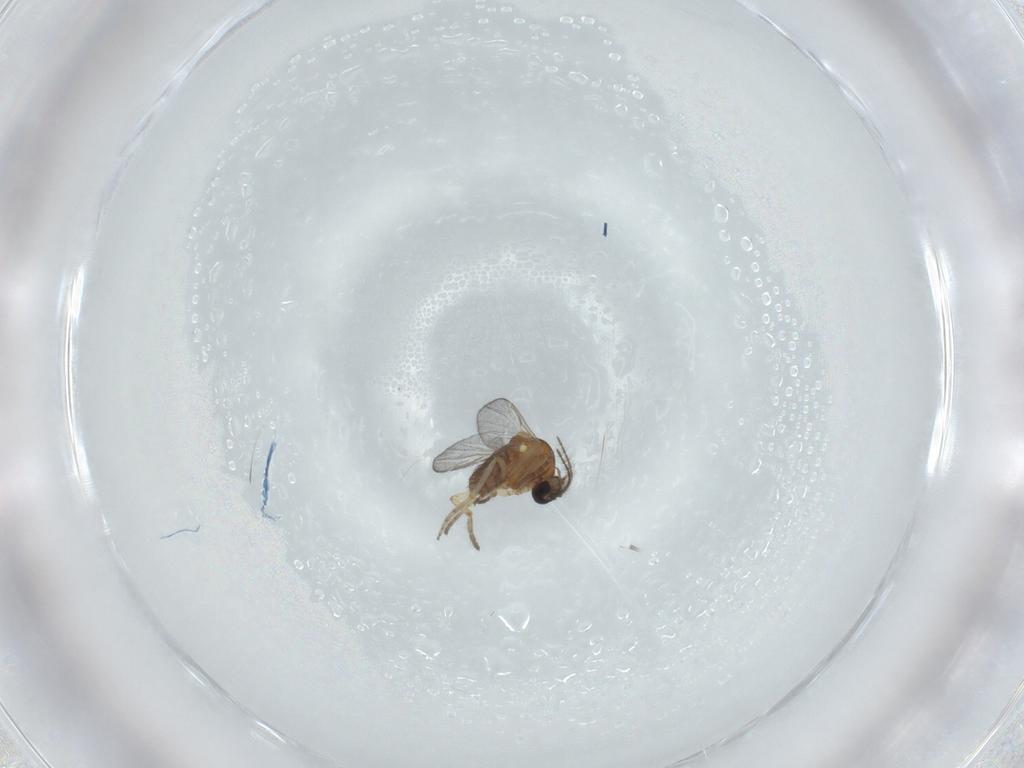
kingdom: Animalia
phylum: Arthropoda
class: Insecta
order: Diptera
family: Ceratopogonidae
